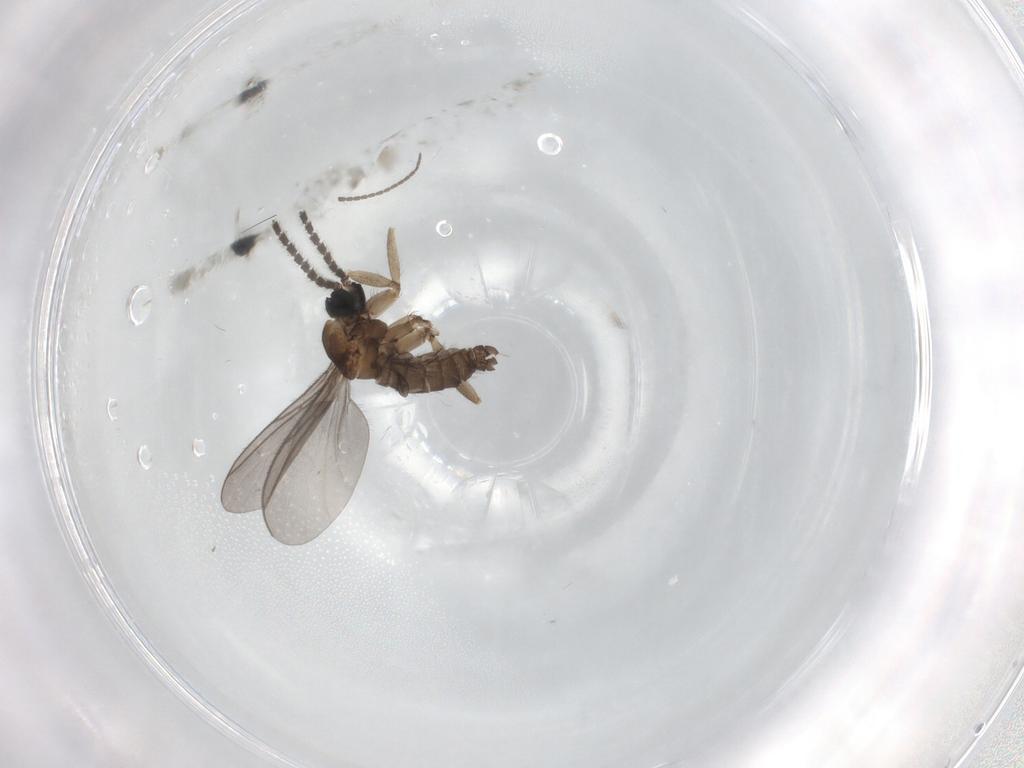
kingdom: Animalia
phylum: Arthropoda
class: Insecta
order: Diptera
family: Sciaridae
